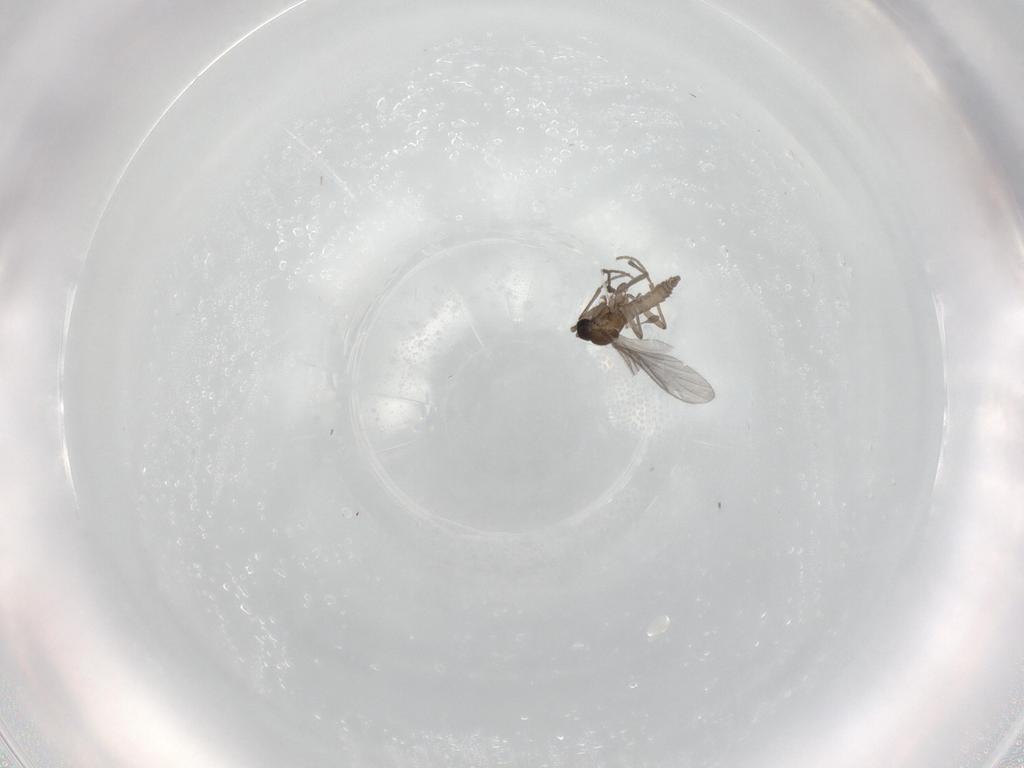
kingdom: Animalia
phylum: Arthropoda
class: Insecta
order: Diptera
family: Sciaridae
